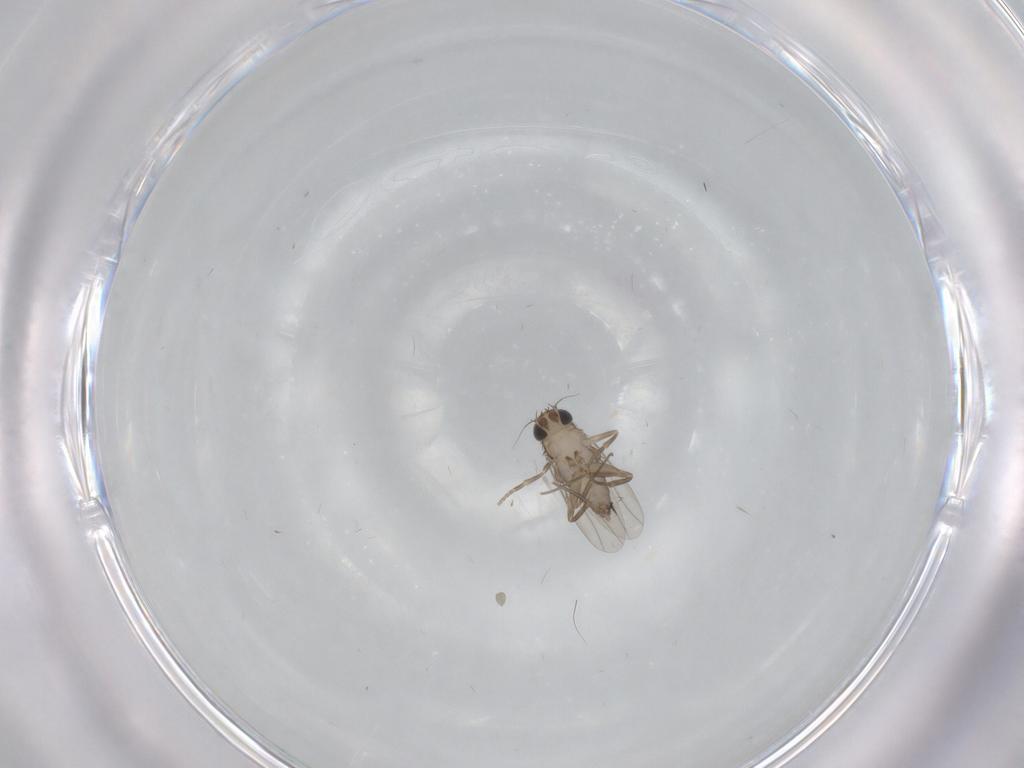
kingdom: Animalia
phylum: Arthropoda
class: Insecta
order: Diptera
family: Phoridae
